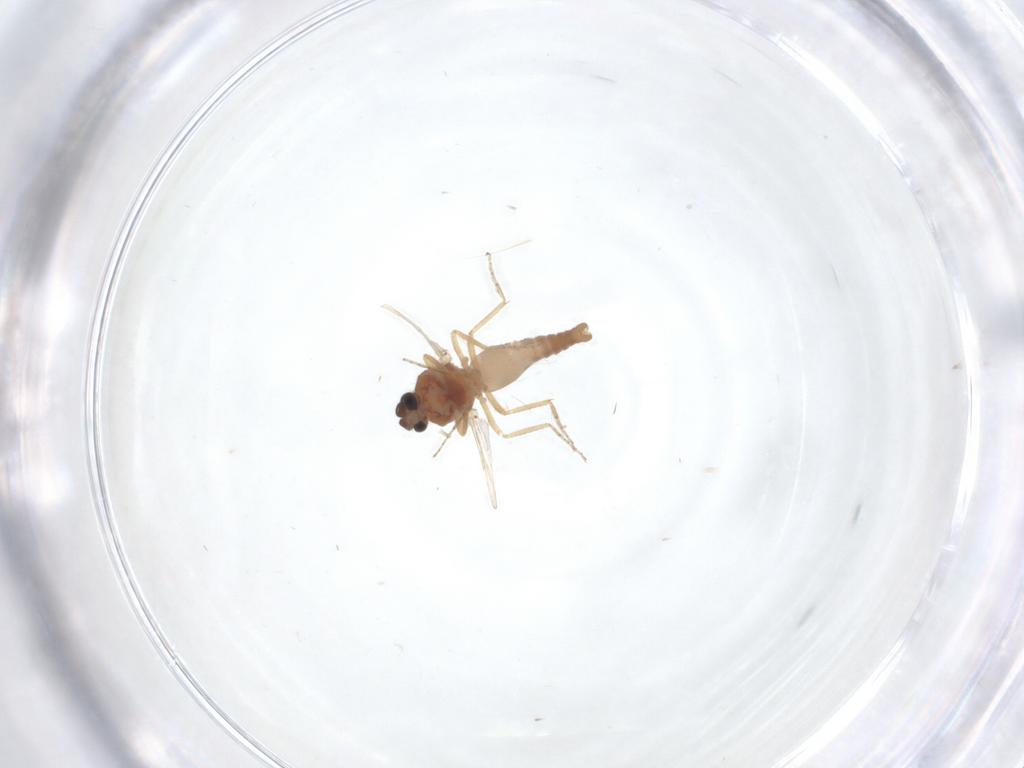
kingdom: Animalia
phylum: Arthropoda
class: Insecta
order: Diptera
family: Ceratopogonidae
